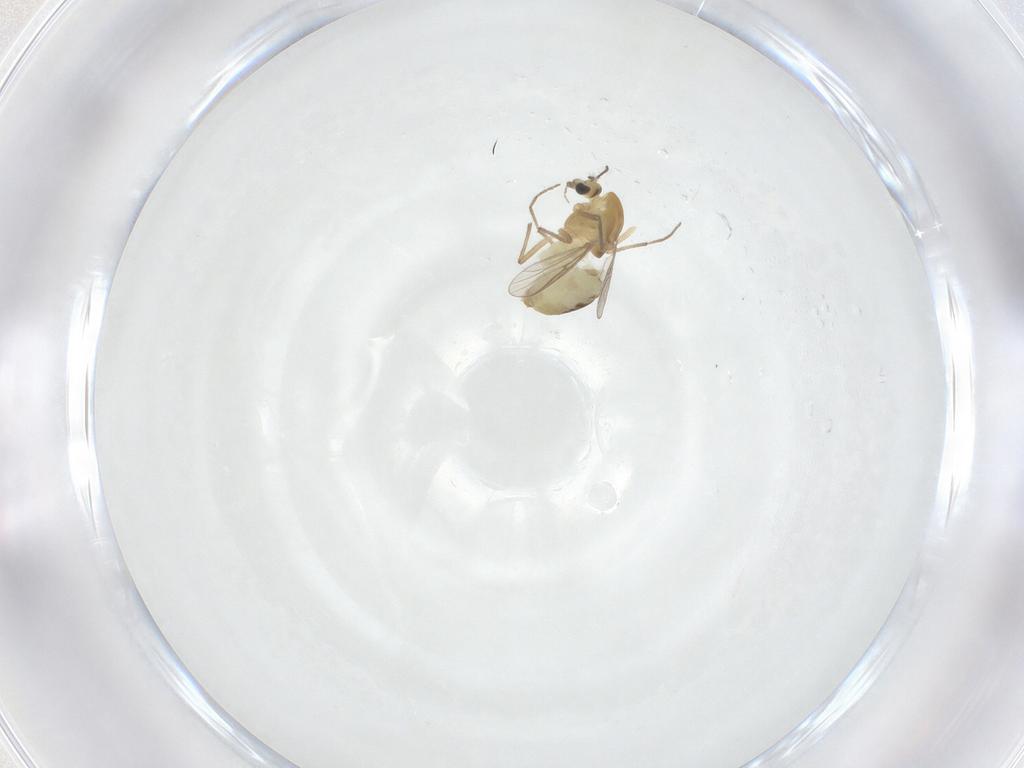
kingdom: Animalia
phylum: Arthropoda
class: Insecta
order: Diptera
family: Chironomidae
